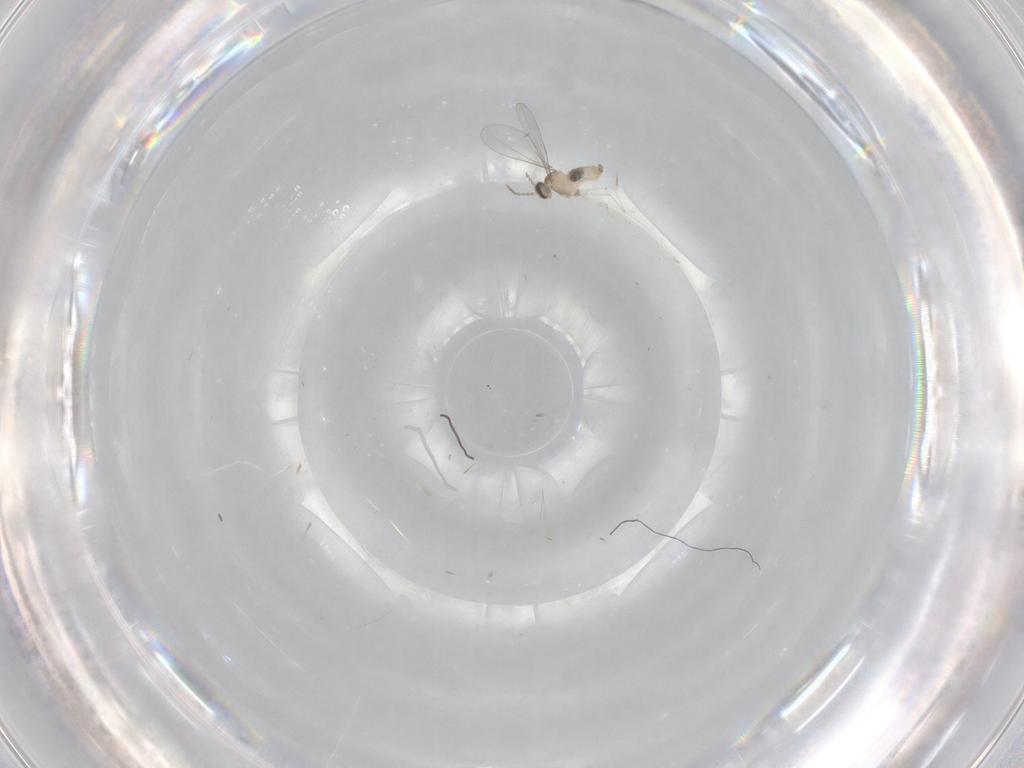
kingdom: Animalia
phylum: Arthropoda
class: Insecta
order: Diptera
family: Cecidomyiidae
